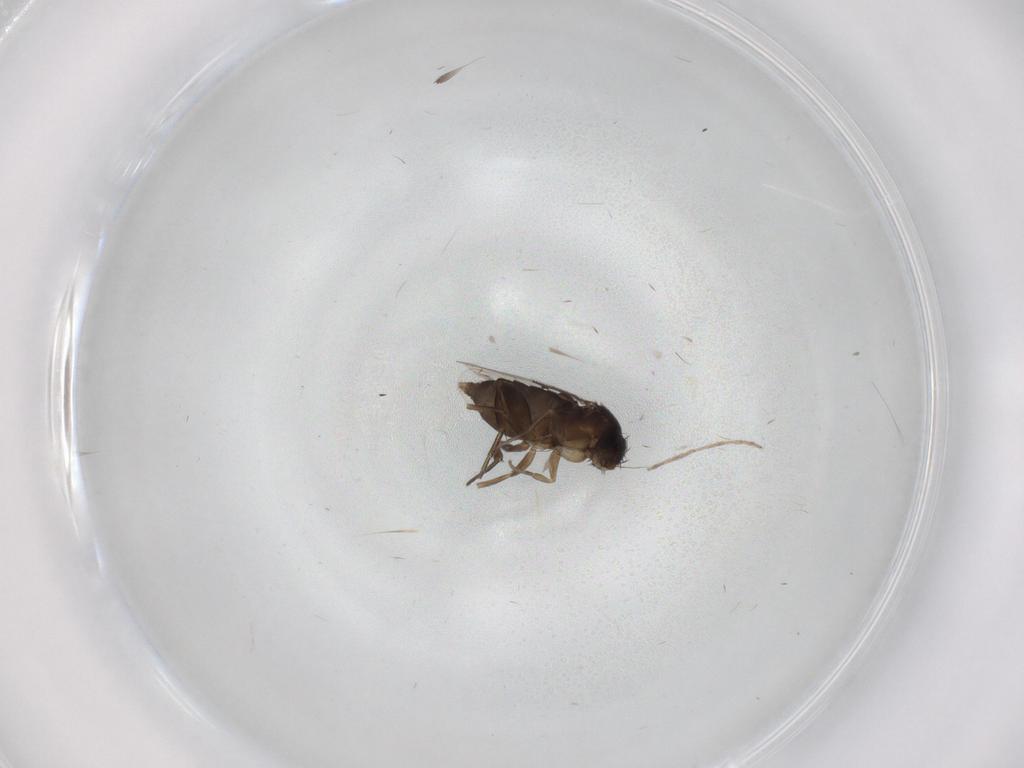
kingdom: Animalia
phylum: Arthropoda
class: Insecta
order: Diptera
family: Phoridae
